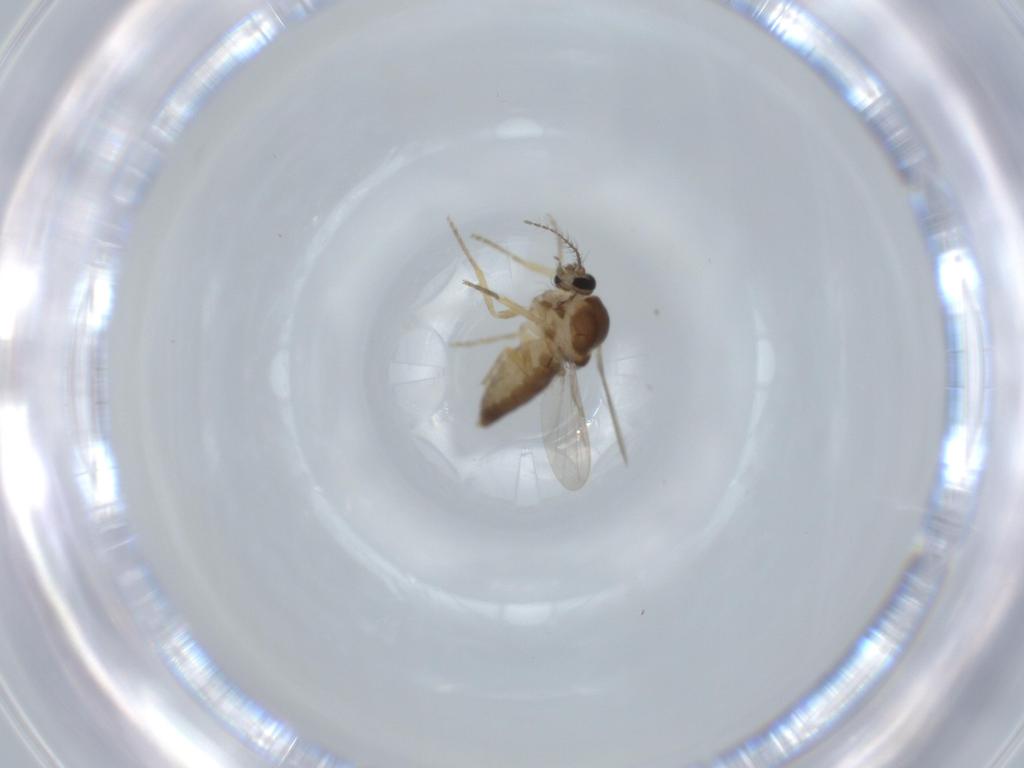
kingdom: Animalia
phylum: Arthropoda
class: Insecta
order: Diptera
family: Ceratopogonidae
